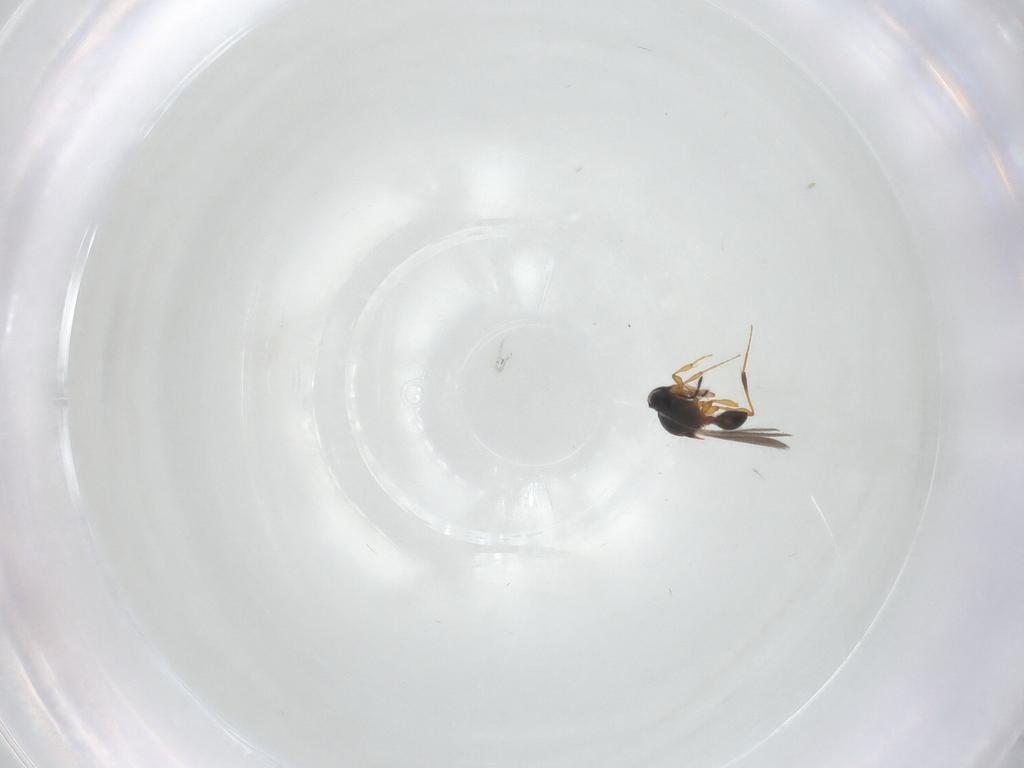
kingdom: Animalia
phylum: Arthropoda
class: Insecta
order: Hymenoptera
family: Platygastridae
